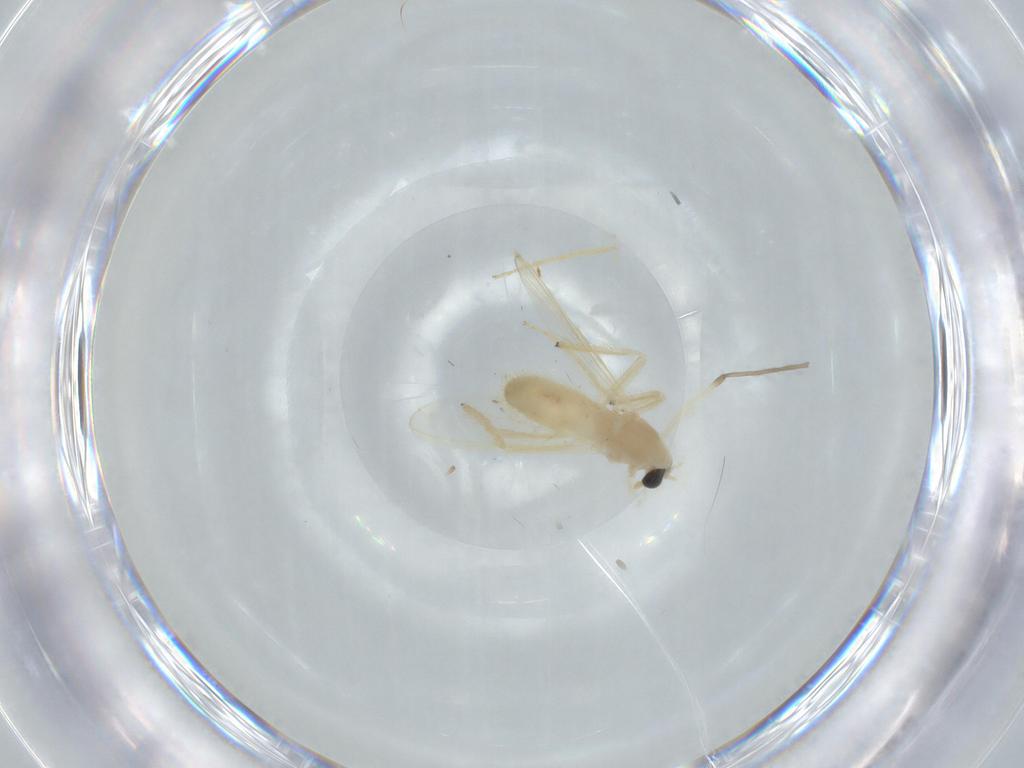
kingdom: Animalia
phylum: Arthropoda
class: Insecta
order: Diptera
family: Chironomidae
